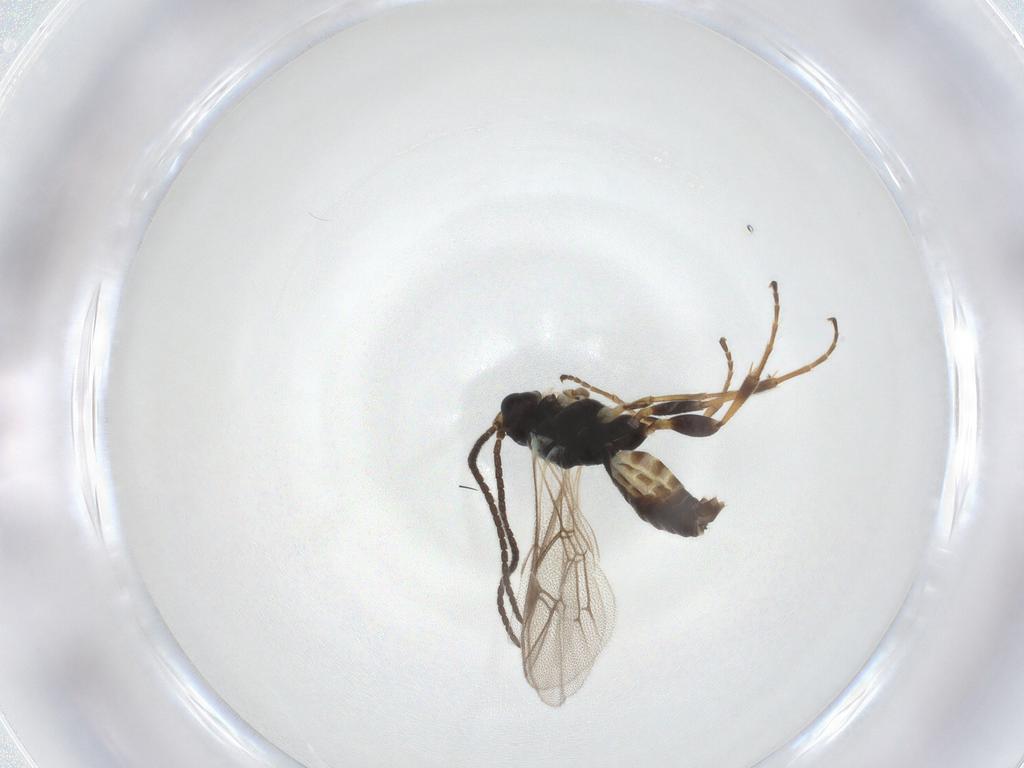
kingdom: Animalia
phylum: Arthropoda
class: Insecta
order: Hymenoptera
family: Ichneumonidae
